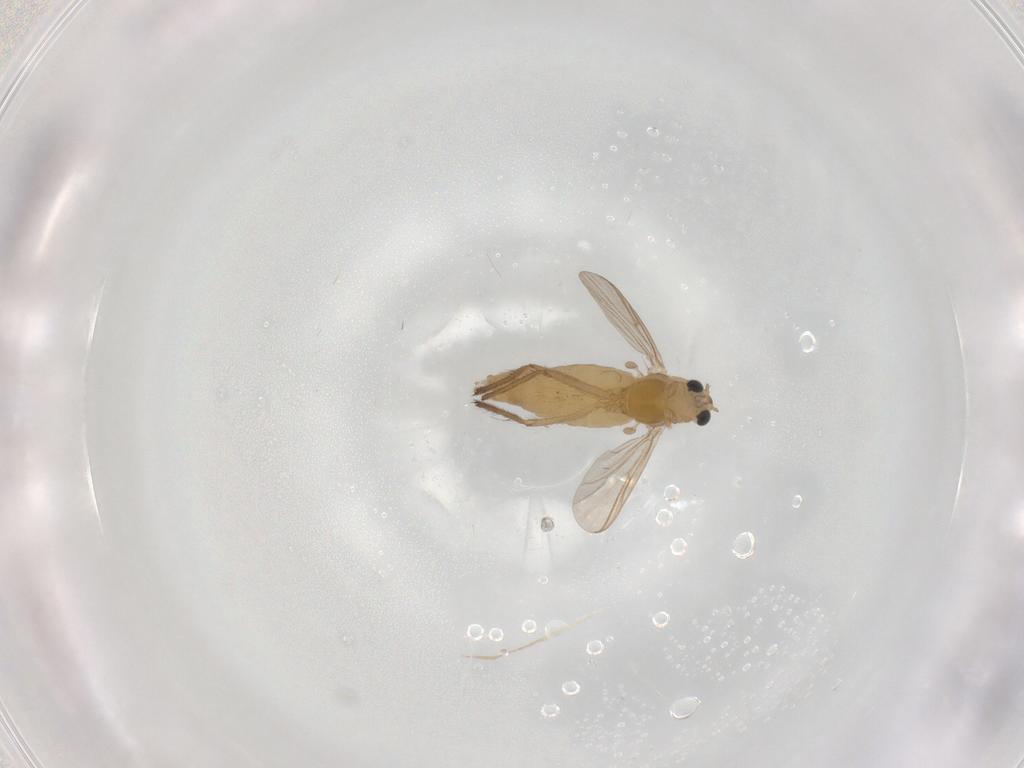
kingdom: Animalia
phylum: Arthropoda
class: Insecta
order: Diptera
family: Chironomidae
